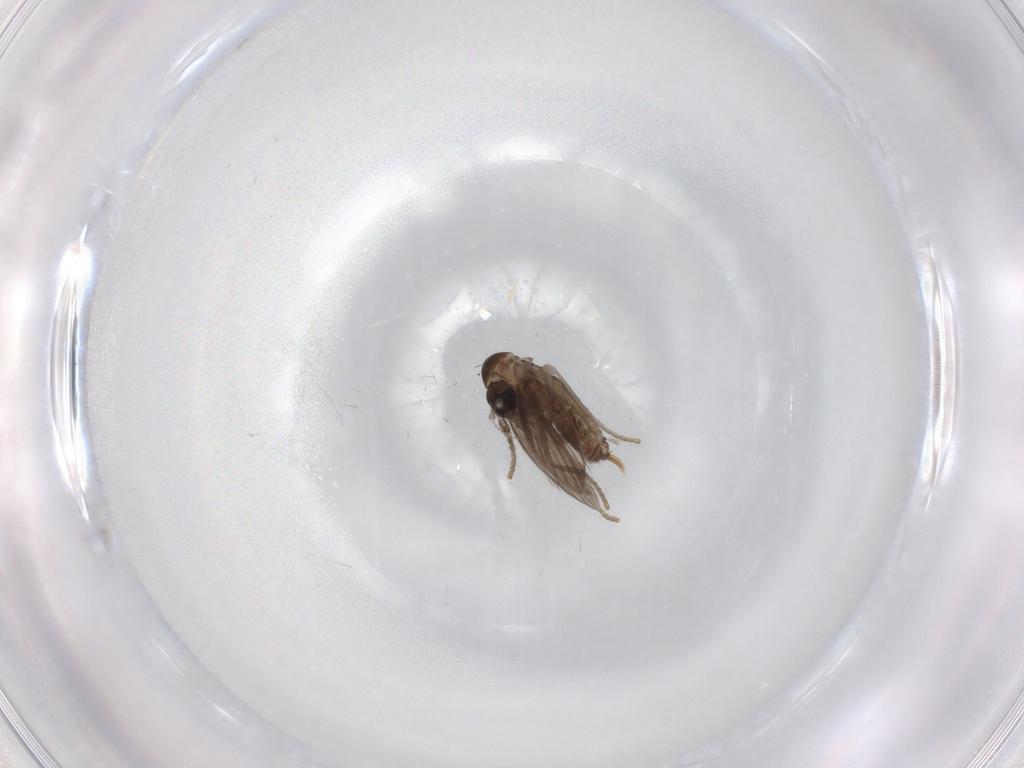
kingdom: Animalia
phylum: Arthropoda
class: Insecta
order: Diptera
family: Psychodidae
